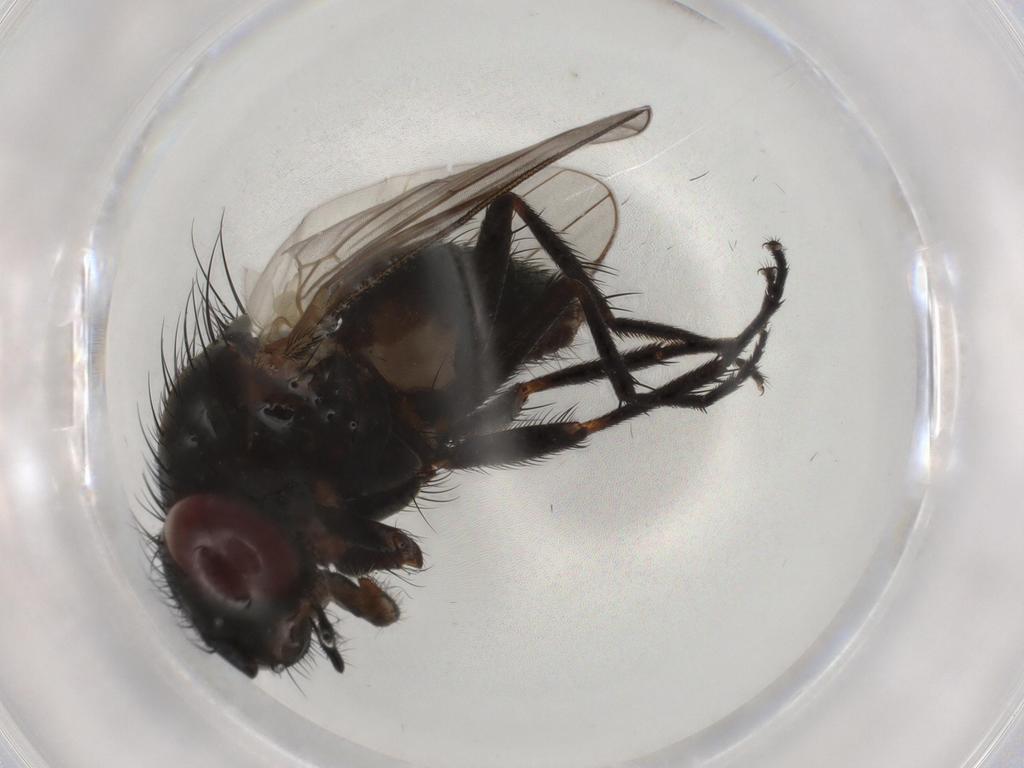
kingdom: Animalia
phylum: Arthropoda
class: Insecta
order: Diptera
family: Fannia
